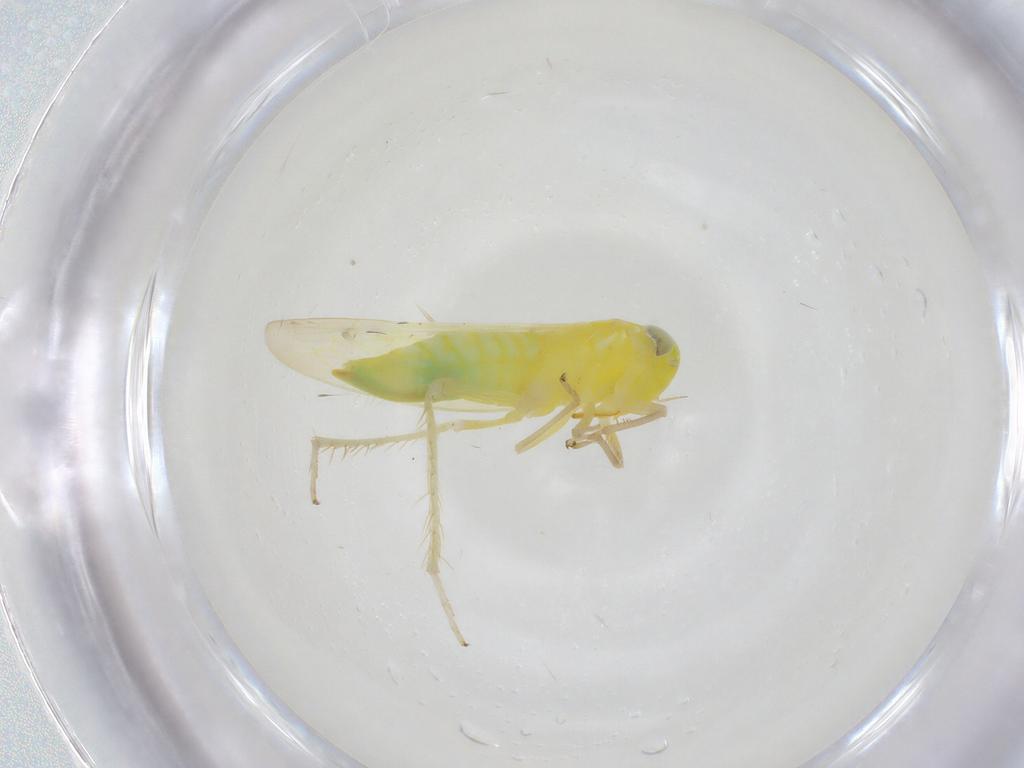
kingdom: Animalia
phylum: Arthropoda
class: Insecta
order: Hemiptera
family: Cicadellidae
